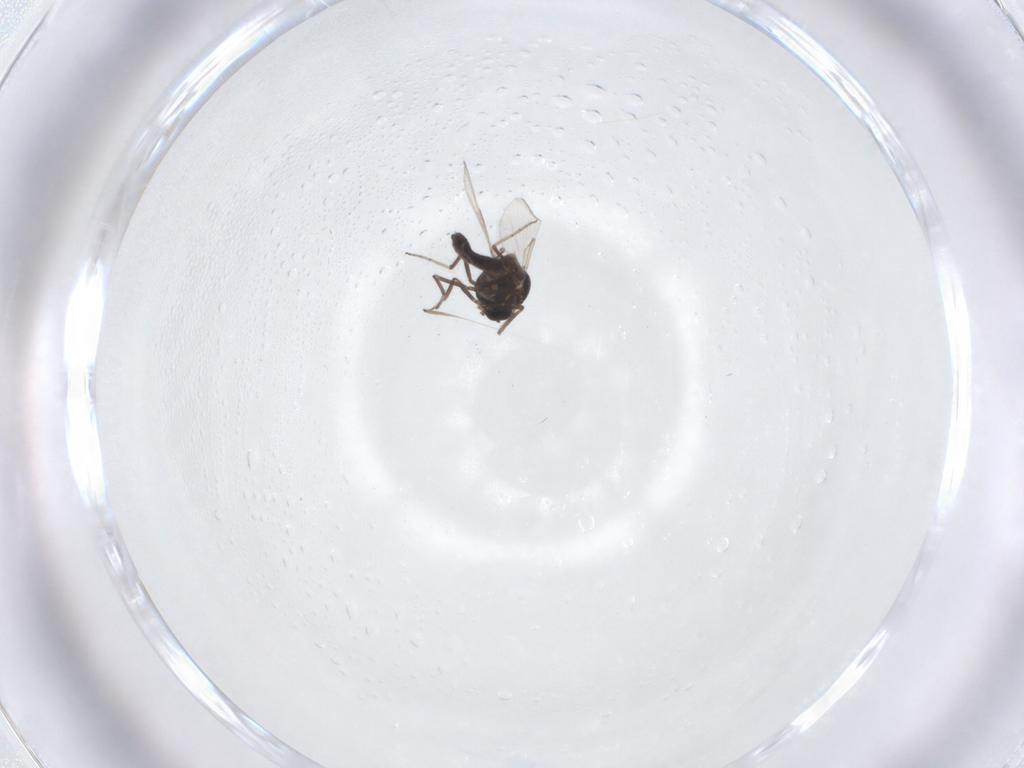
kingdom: Animalia
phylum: Arthropoda
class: Insecta
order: Diptera
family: Ceratopogonidae
